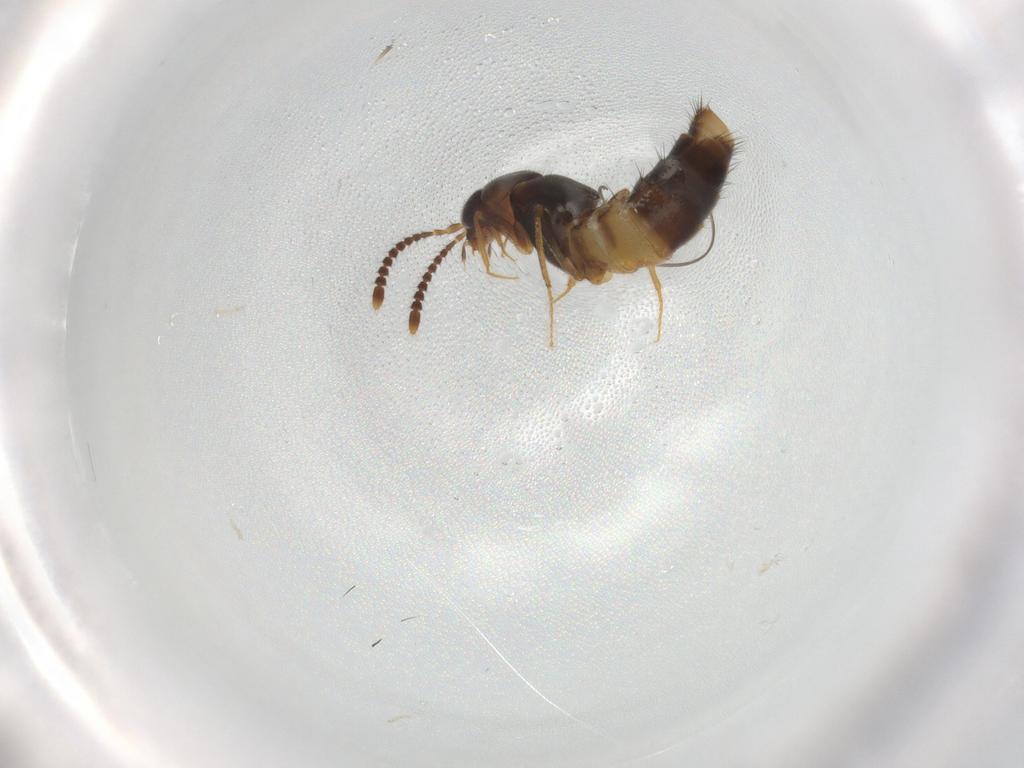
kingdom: Animalia
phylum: Arthropoda
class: Insecta
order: Coleoptera
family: Staphylinidae
